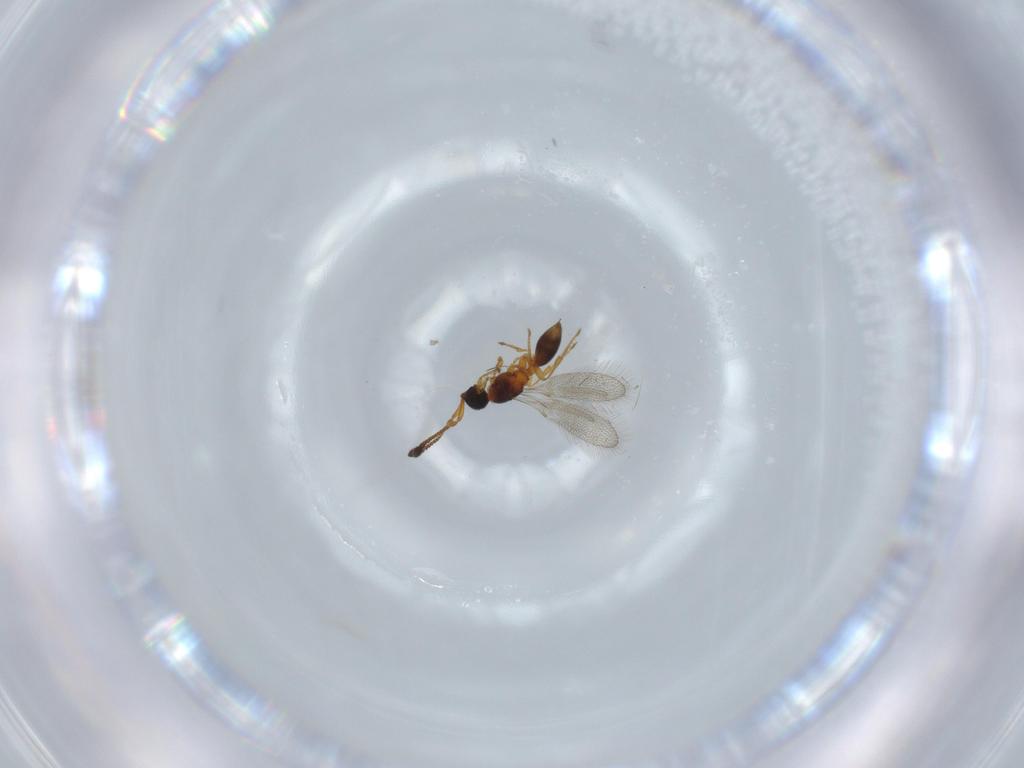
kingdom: Animalia
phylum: Arthropoda
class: Insecta
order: Hymenoptera
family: Diapriidae
